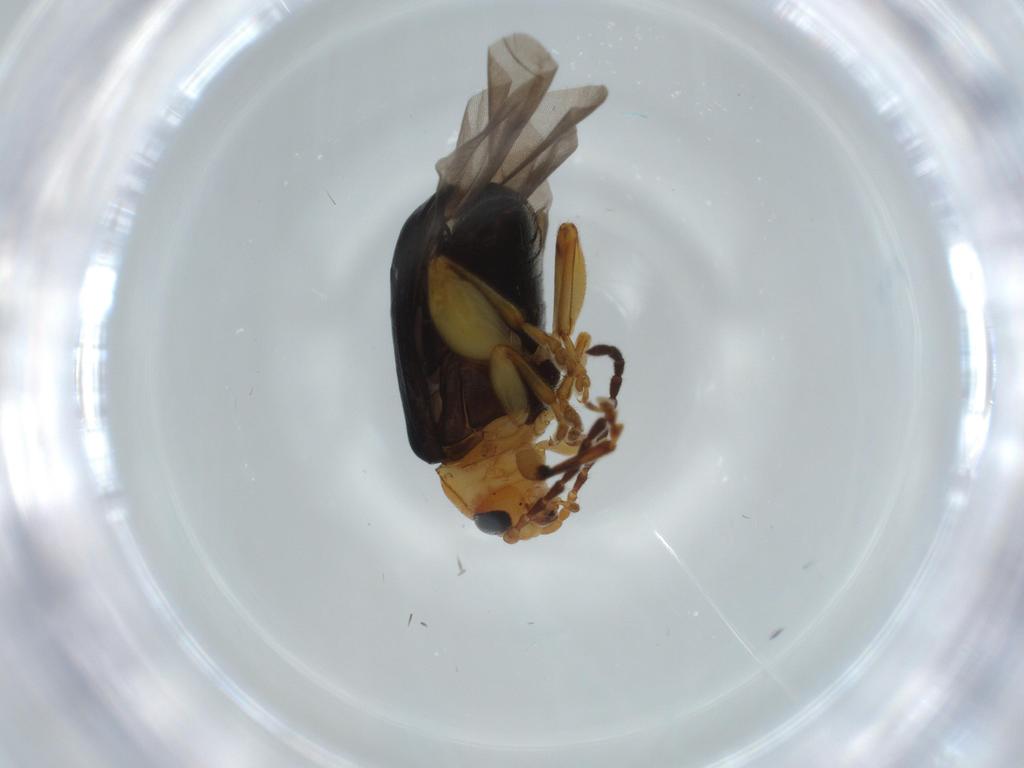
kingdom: Animalia
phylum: Arthropoda
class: Insecta
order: Coleoptera
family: Chrysomelidae
